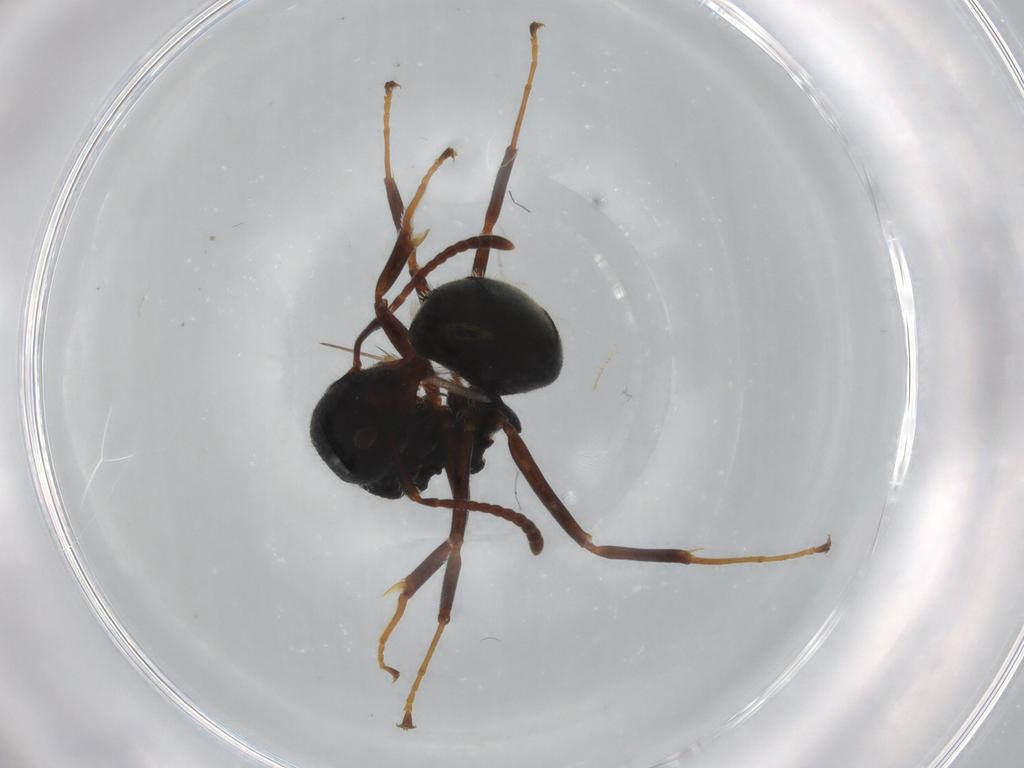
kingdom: Animalia
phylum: Arthropoda
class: Insecta
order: Hymenoptera
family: Formicidae
